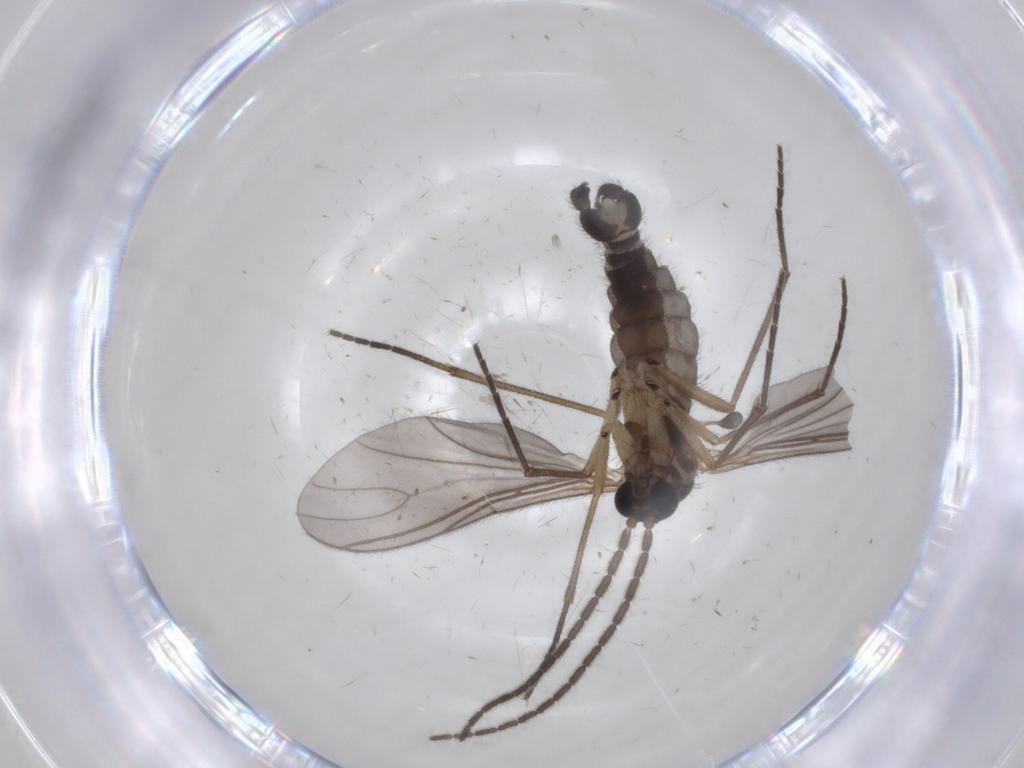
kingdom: Animalia
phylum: Arthropoda
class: Insecta
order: Diptera
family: Sciaridae
